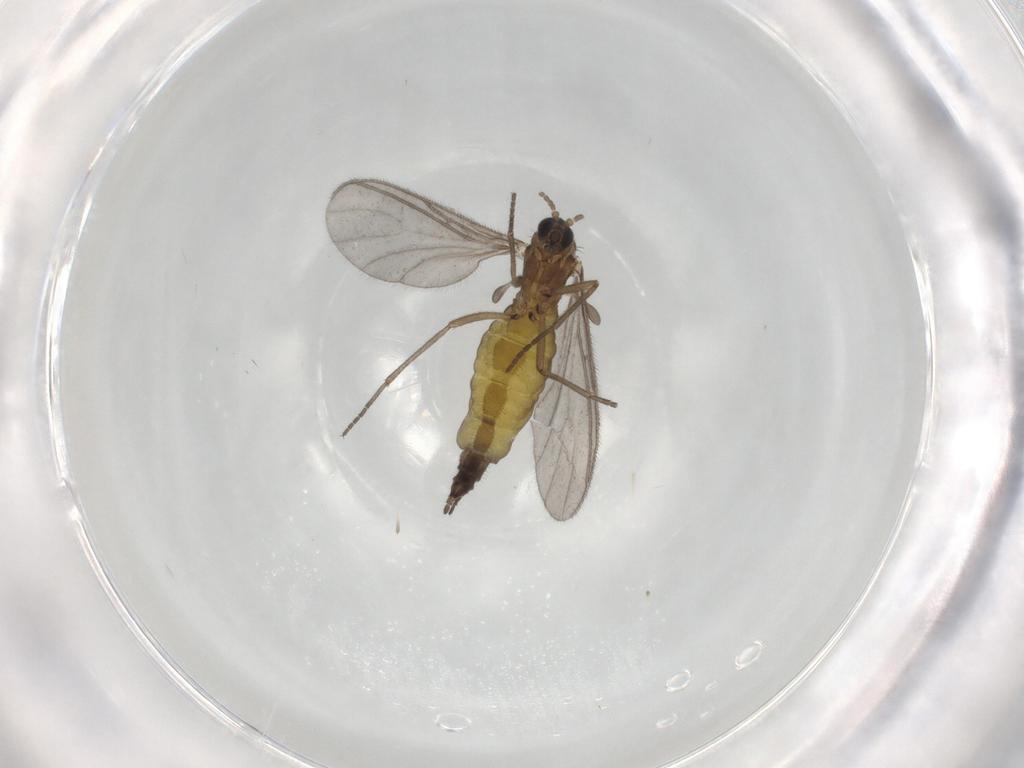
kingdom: Animalia
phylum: Arthropoda
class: Insecta
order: Diptera
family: Sciaridae
